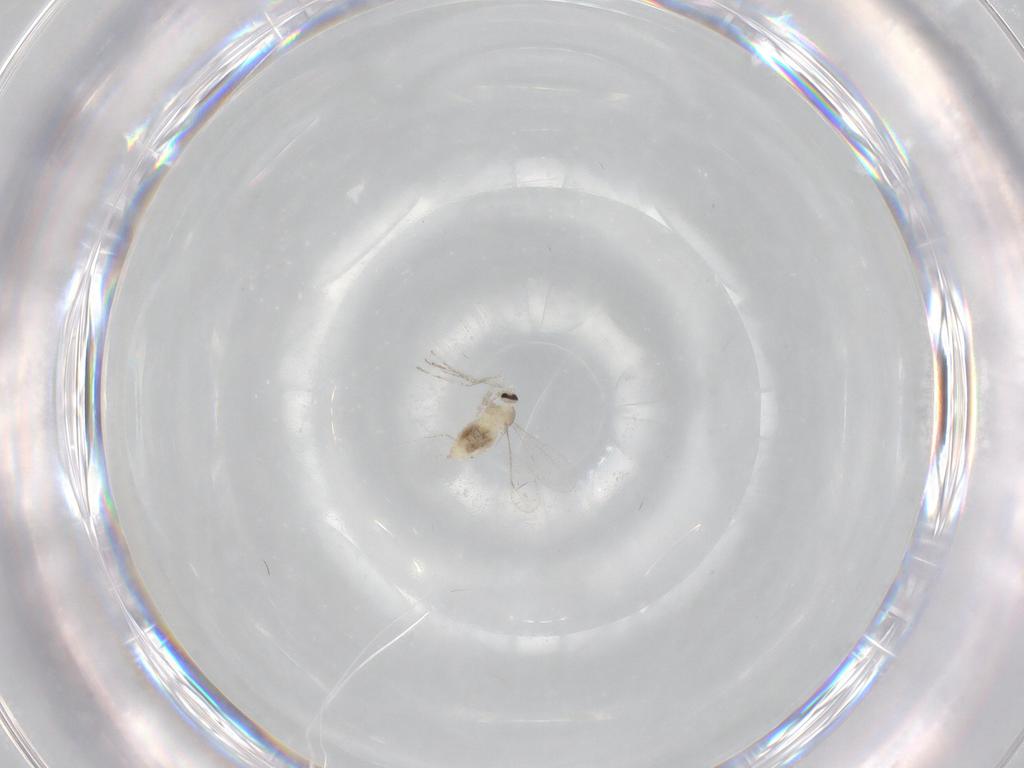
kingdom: Animalia
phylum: Arthropoda
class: Insecta
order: Diptera
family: Cecidomyiidae
